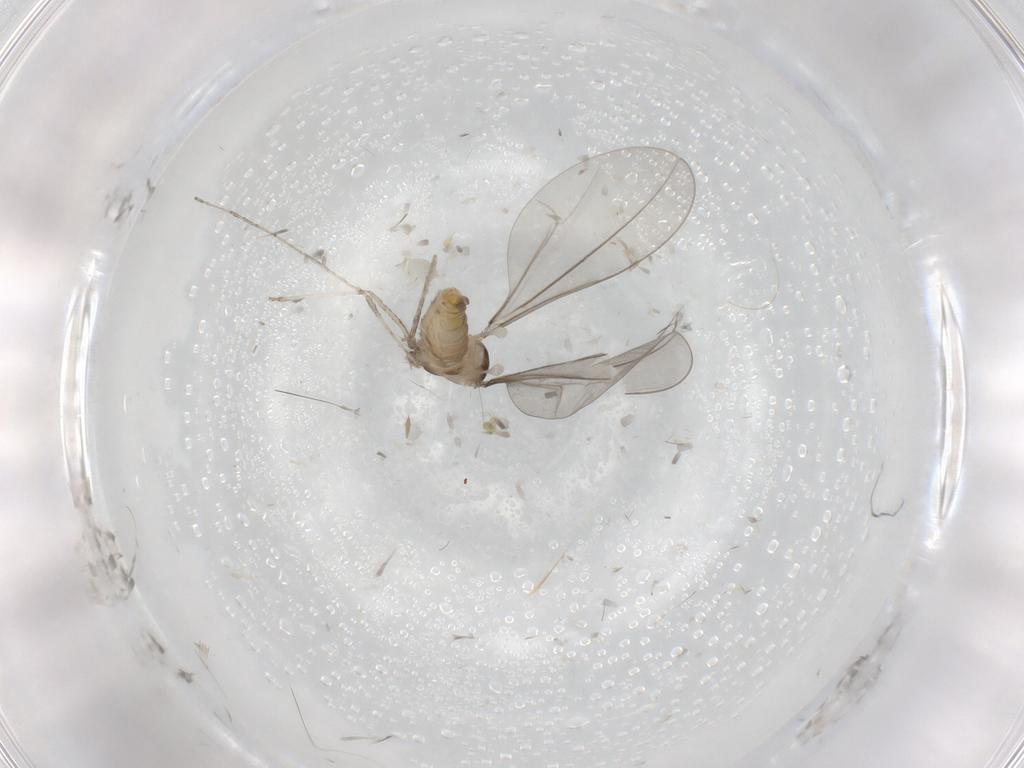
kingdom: Animalia
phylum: Arthropoda
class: Insecta
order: Diptera
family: Cecidomyiidae
